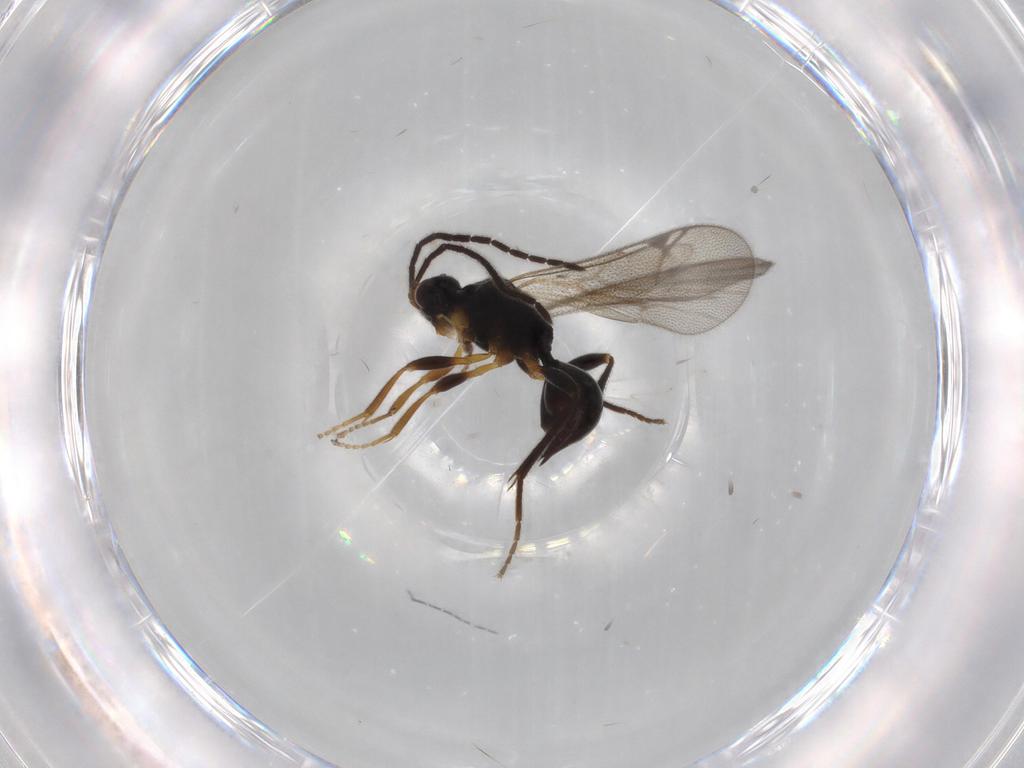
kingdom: Animalia
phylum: Arthropoda
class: Insecta
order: Hymenoptera
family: Proctotrupidae
